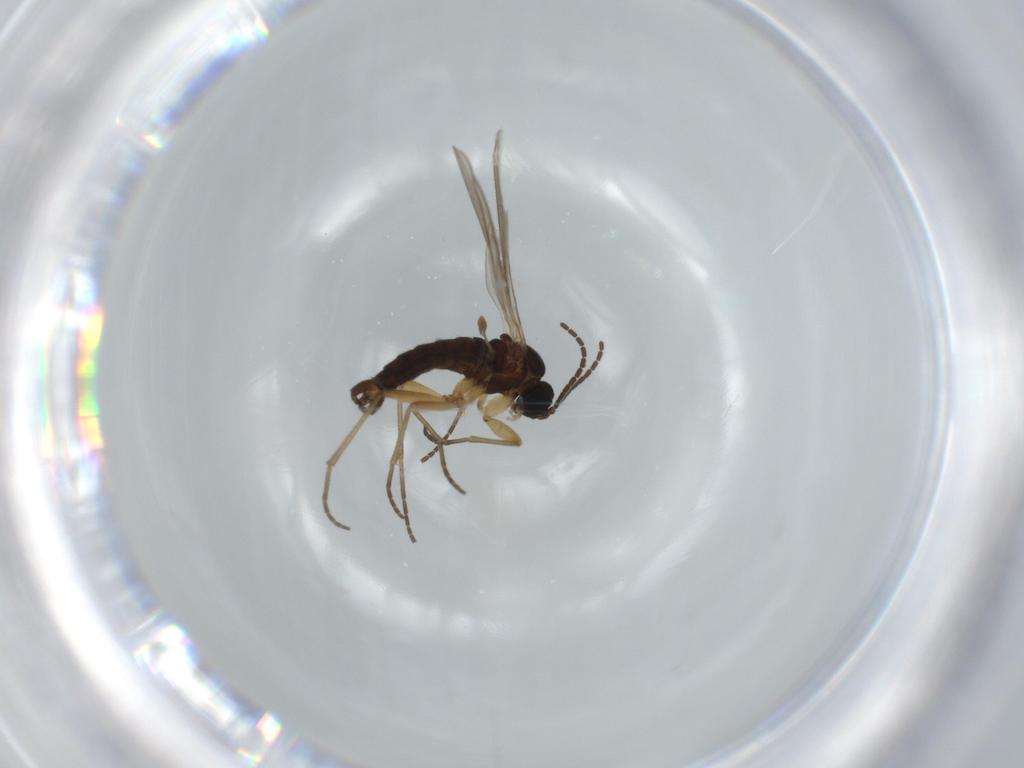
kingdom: Animalia
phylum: Arthropoda
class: Insecta
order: Diptera
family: Sciaridae
